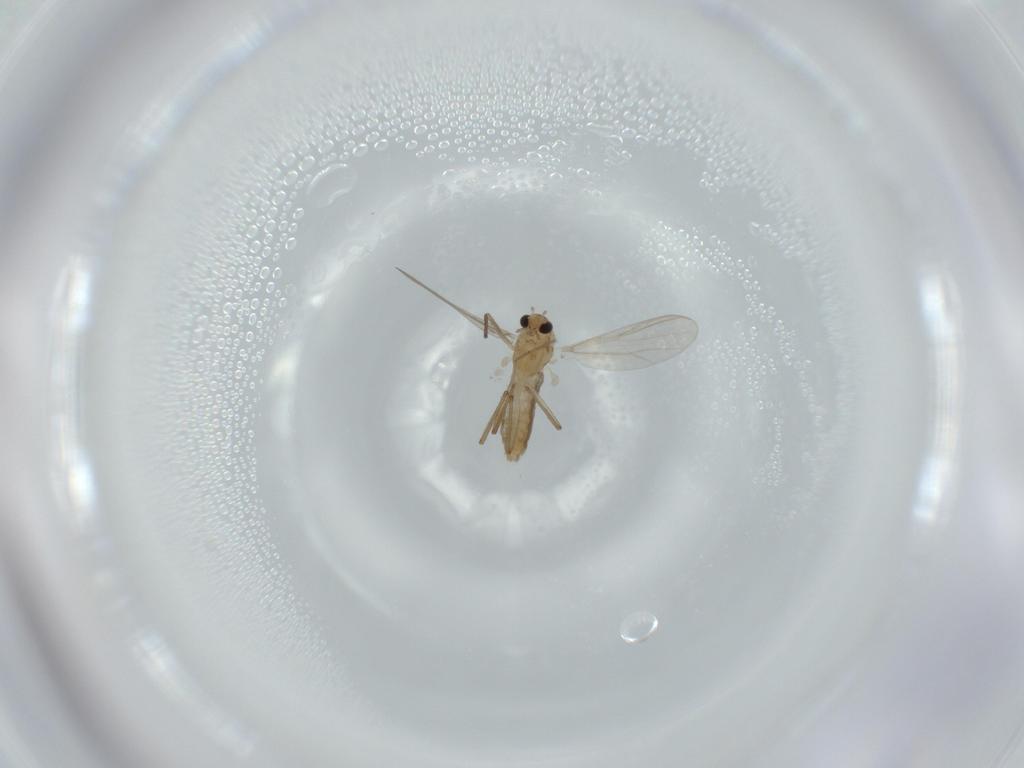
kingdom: Animalia
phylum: Arthropoda
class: Insecta
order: Diptera
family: Chironomidae
